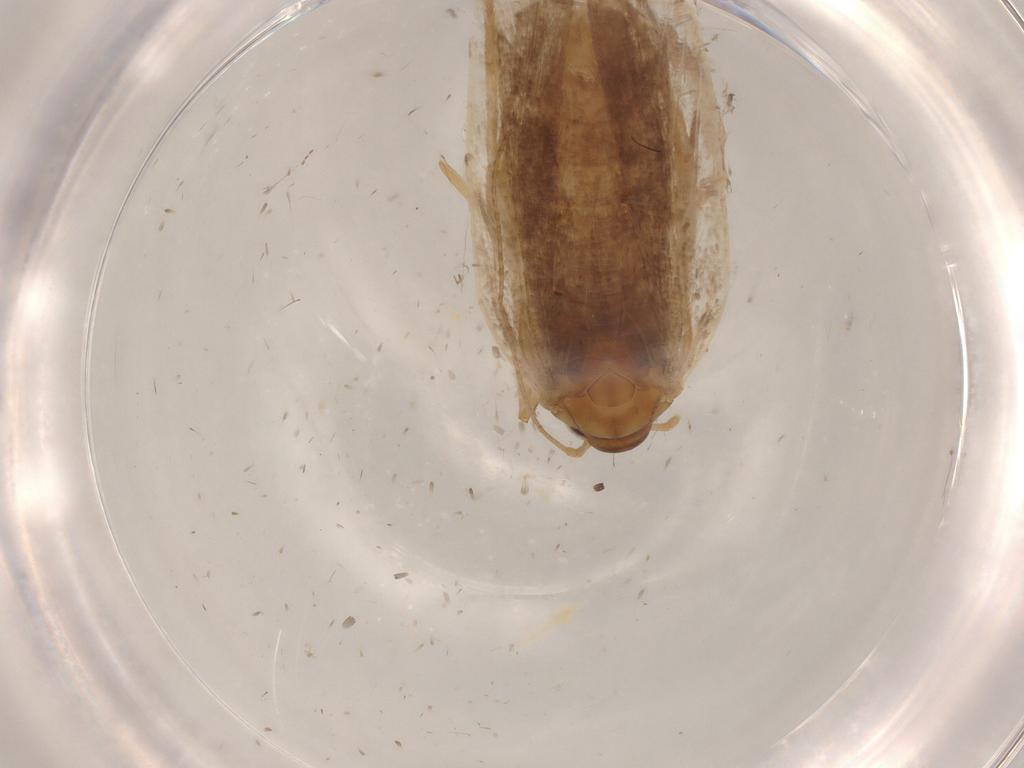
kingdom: Animalia
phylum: Arthropoda
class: Insecta
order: Lepidoptera
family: Gelechiidae
